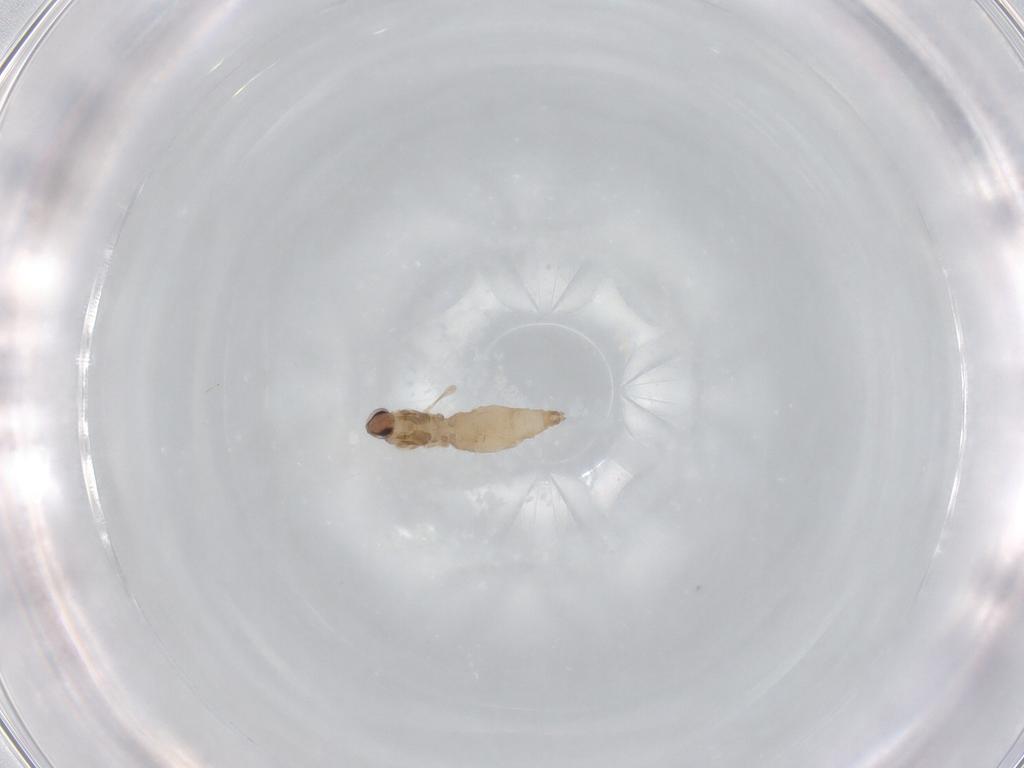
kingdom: Animalia
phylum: Arthropoda
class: Insecta
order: Diptera
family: Cecidomyiidae
